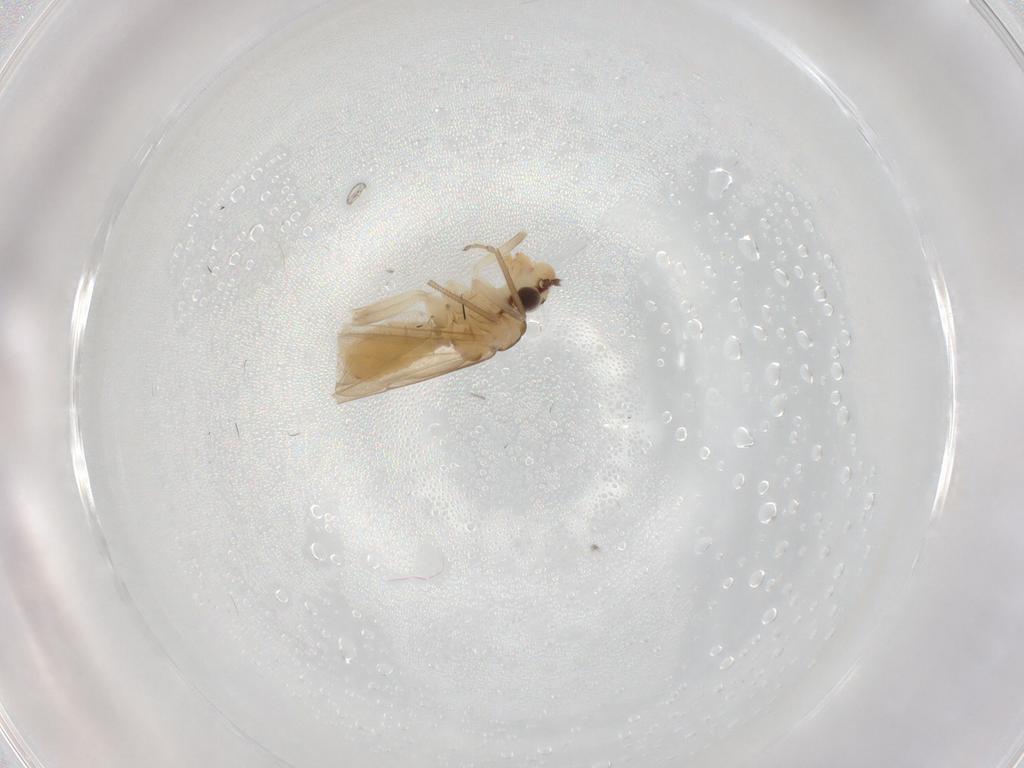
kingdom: Animalia
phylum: Arthropoda
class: Insecta
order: Psocodea
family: Caeciliusidae
